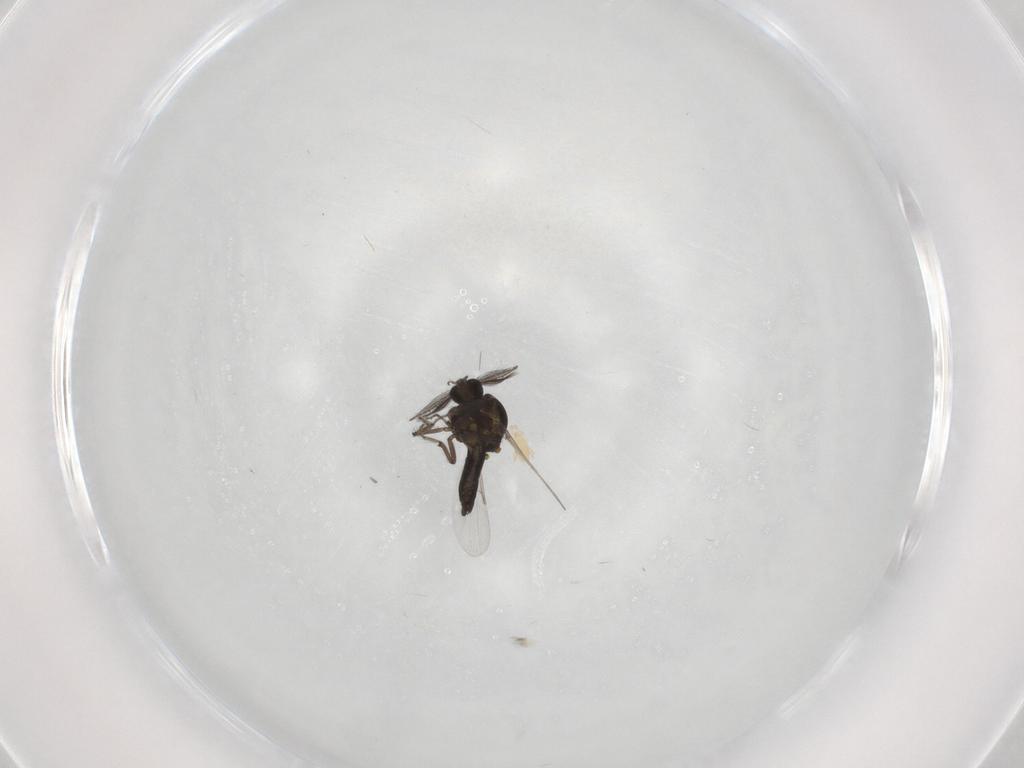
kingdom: Animalia
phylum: Arthropoda
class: Insecta
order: Diptera
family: Ceratopogonidae
